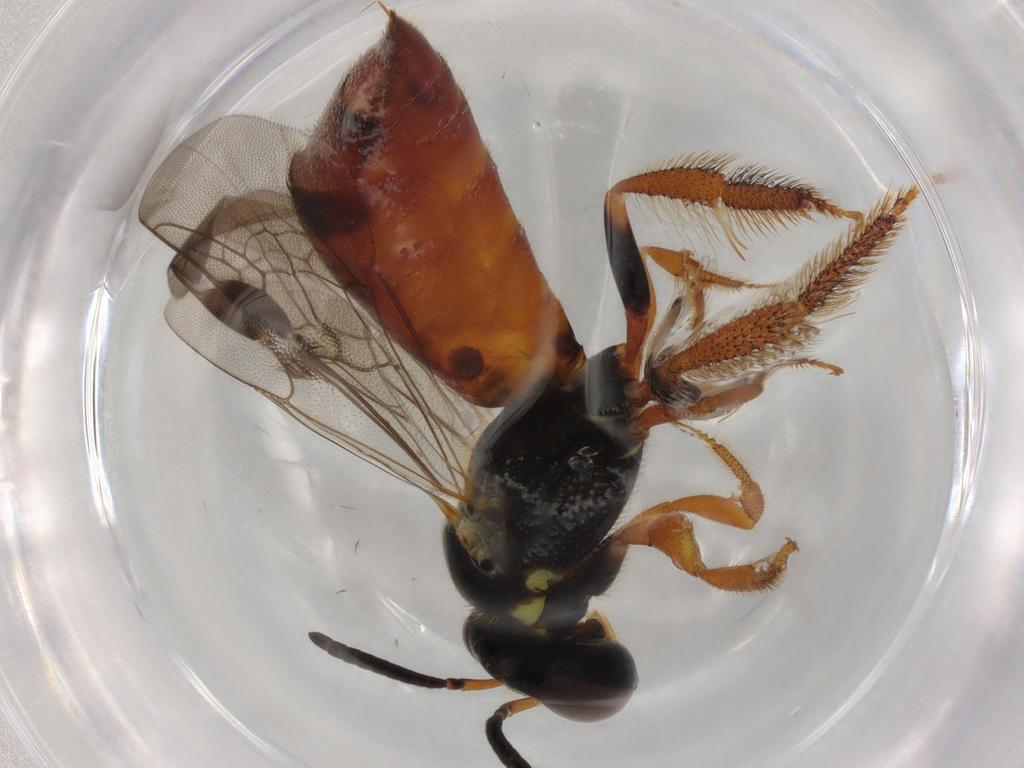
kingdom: Animalia
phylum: Arthropoda
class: Insecta
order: Hymenoptera
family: Apidae
